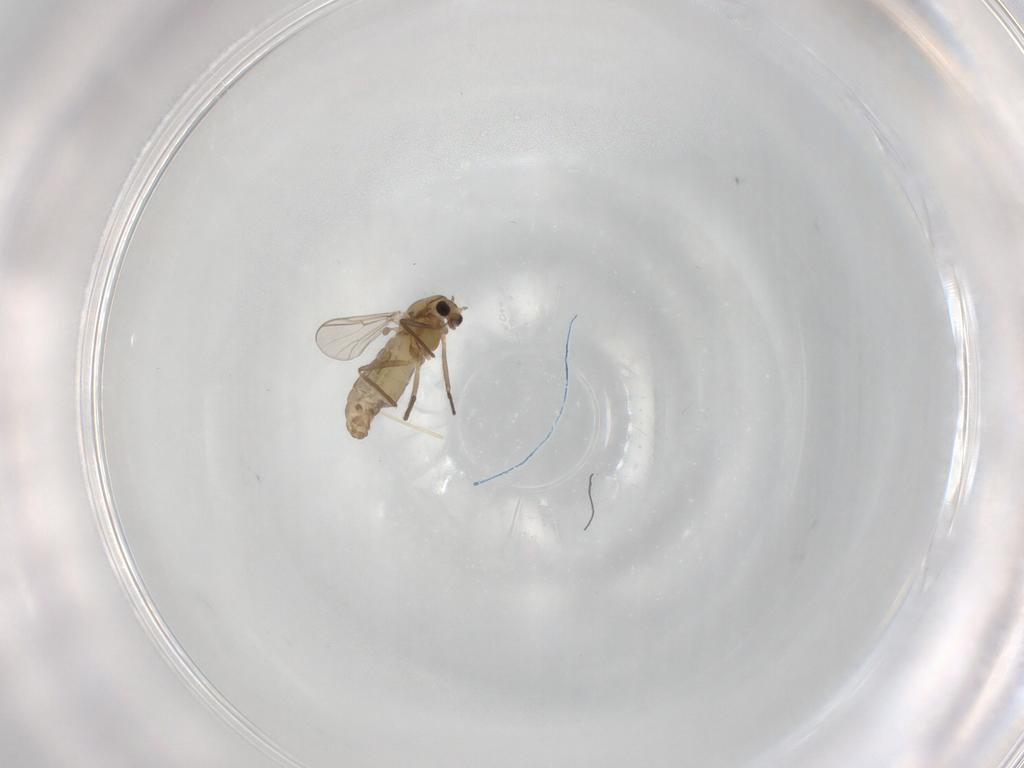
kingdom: Animalia
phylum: Arthropoda
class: Insecta
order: Diptera
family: Chironomidae
